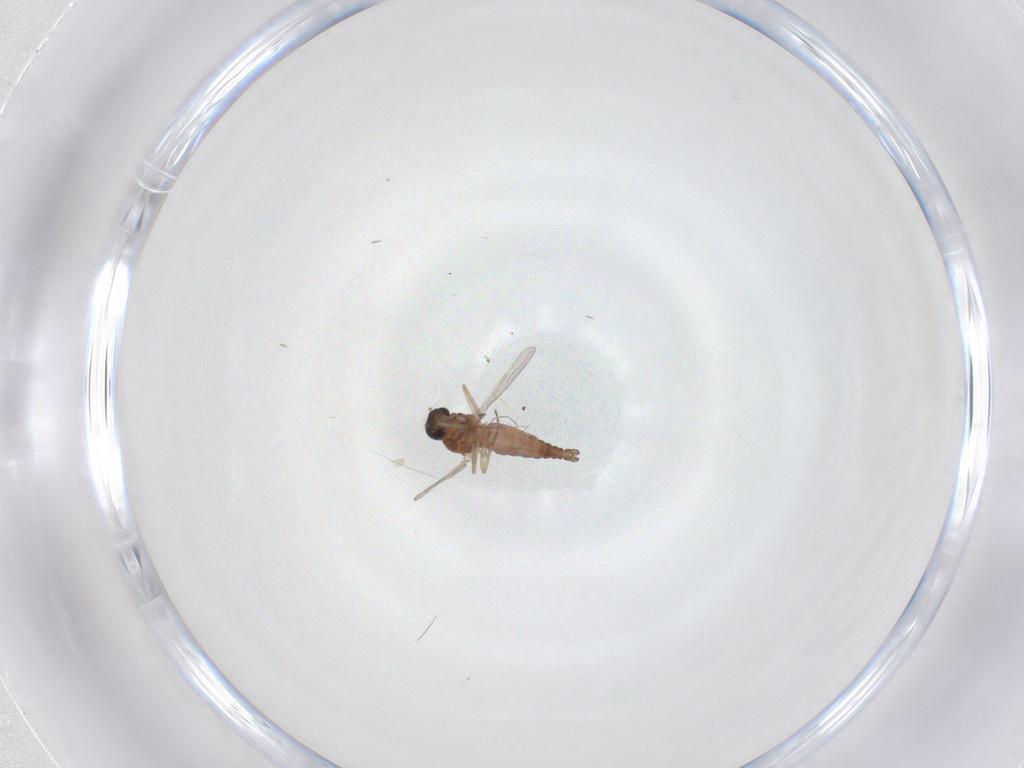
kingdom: Animalia
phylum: Arthropoda
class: Insecta
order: Diptera
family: Ceratopogonidae
